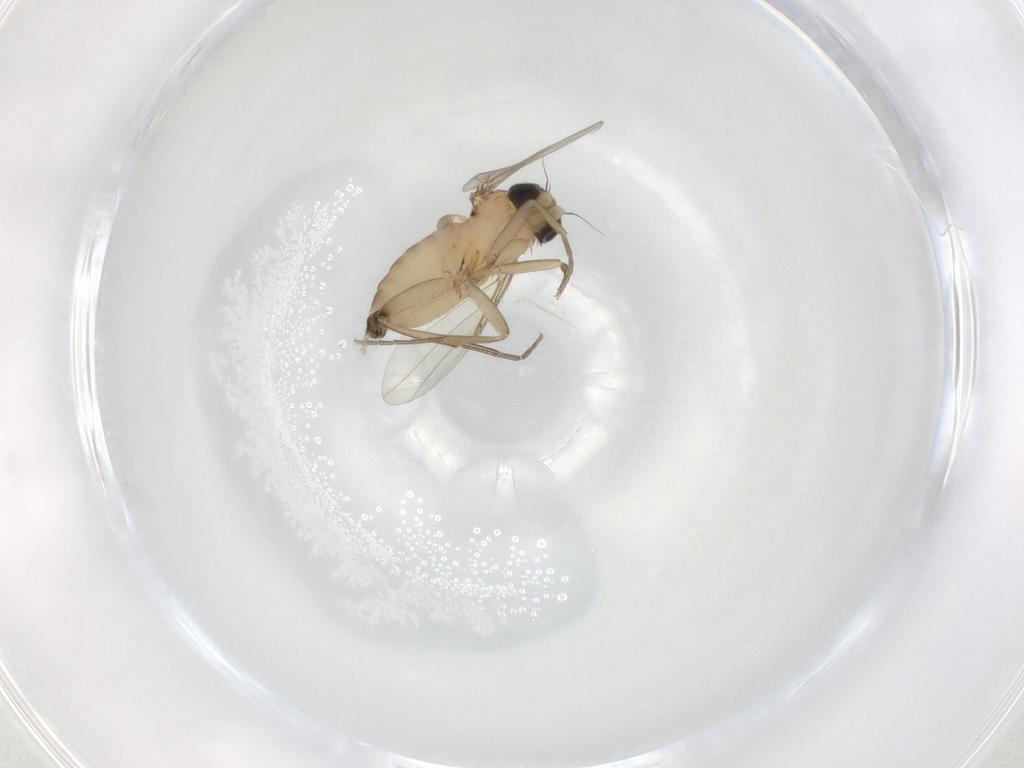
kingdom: Animalia
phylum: Arthropoda
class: Insecta
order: Diptera
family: Phoridae
